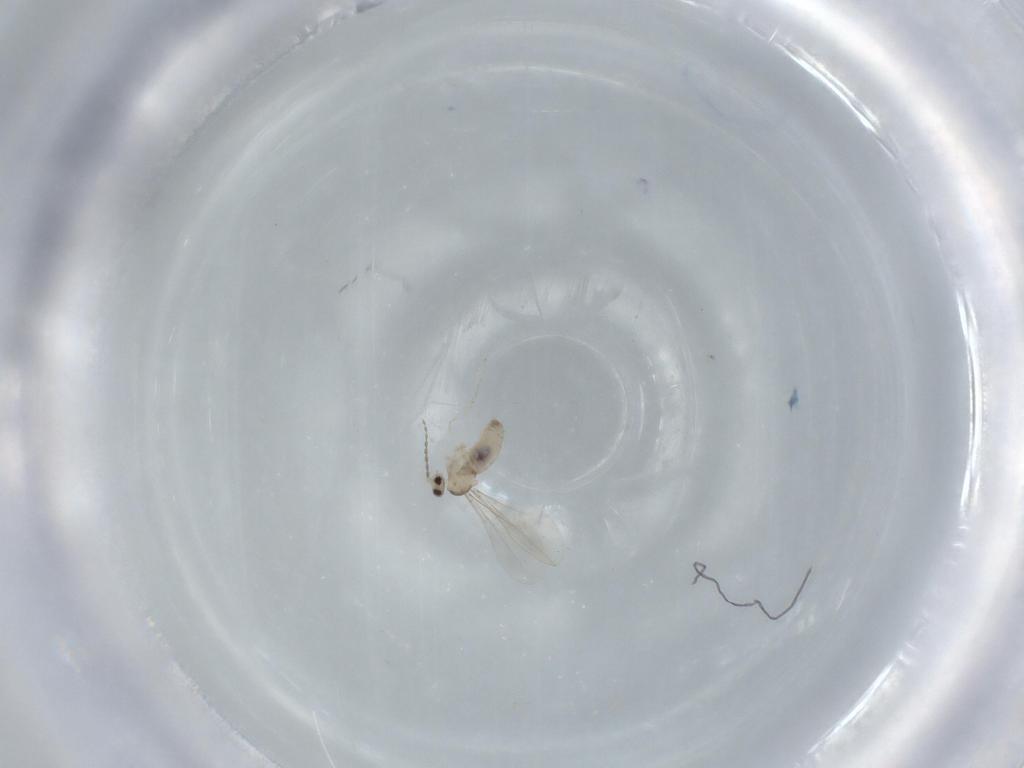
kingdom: Animalia
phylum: Arthropoda
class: Insecta
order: Diptera
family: Cecidomyiidae
